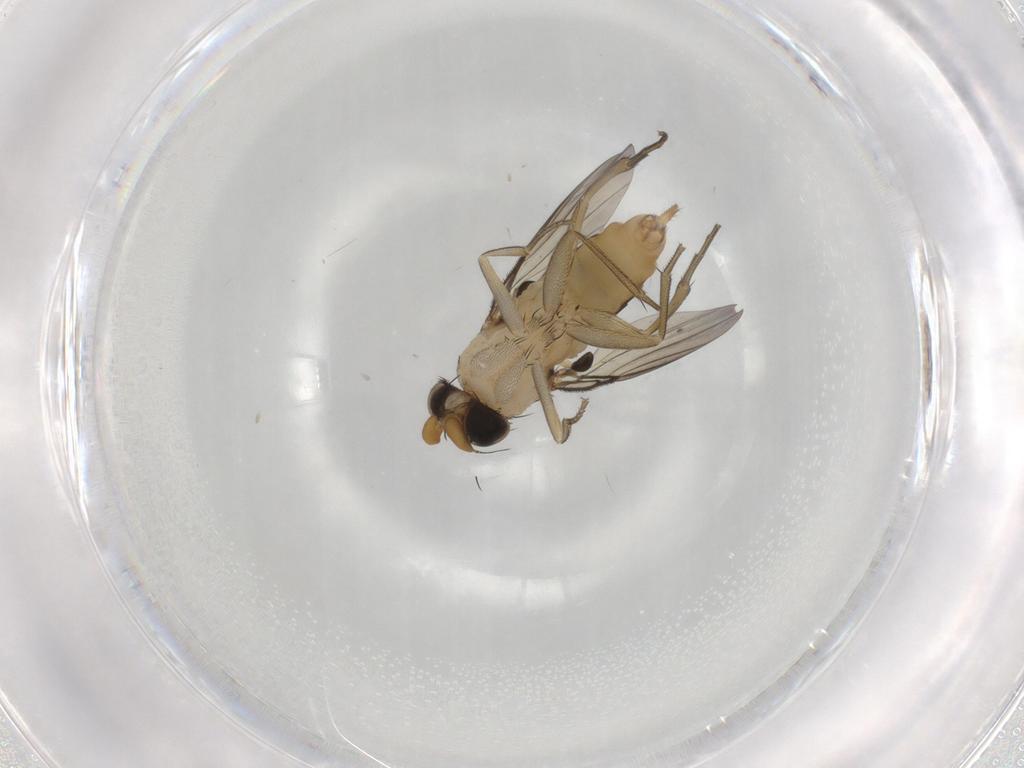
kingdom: Animalia
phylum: Arthropoda
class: Insecta
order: Diptera
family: Phoridae
